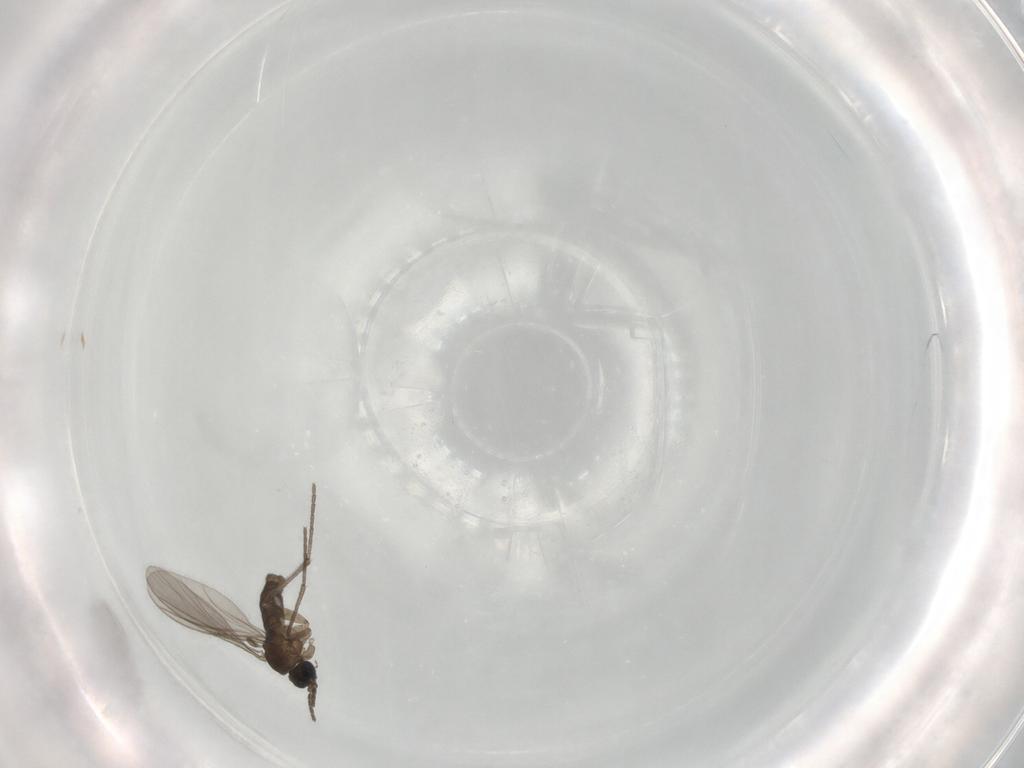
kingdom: Animalia
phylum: Arthropoda
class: Insecta
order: Diptera
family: Sciaridae
